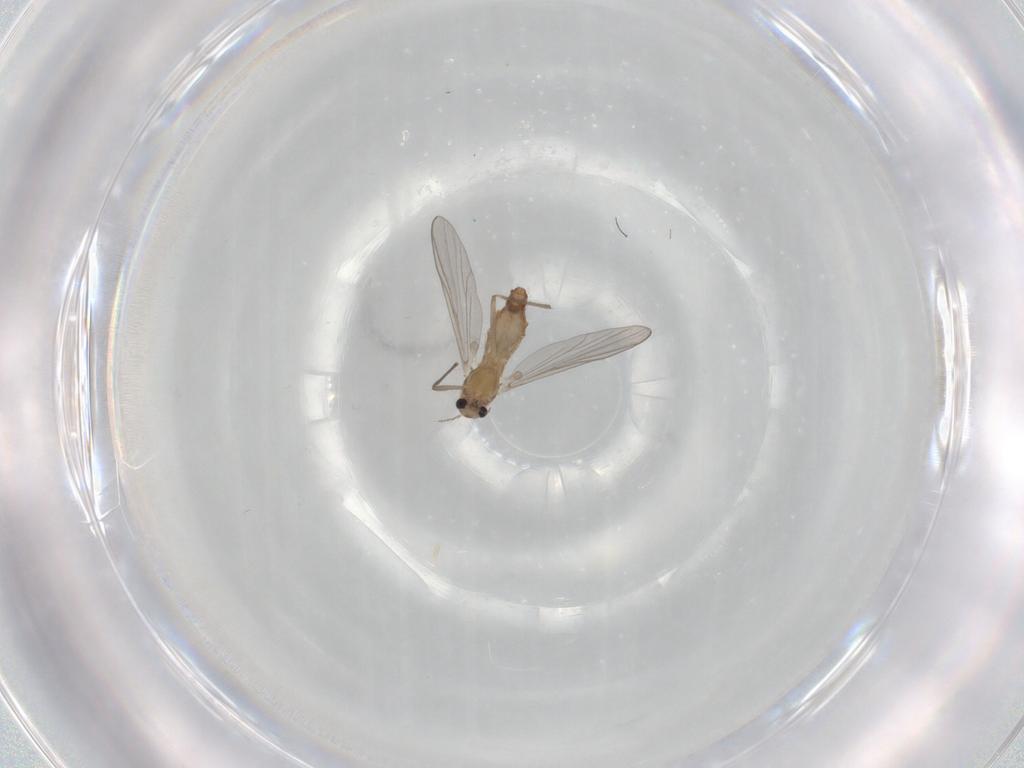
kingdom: Animalia
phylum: Arthropoda
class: Insecta
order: Diptera
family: Chironomidae
